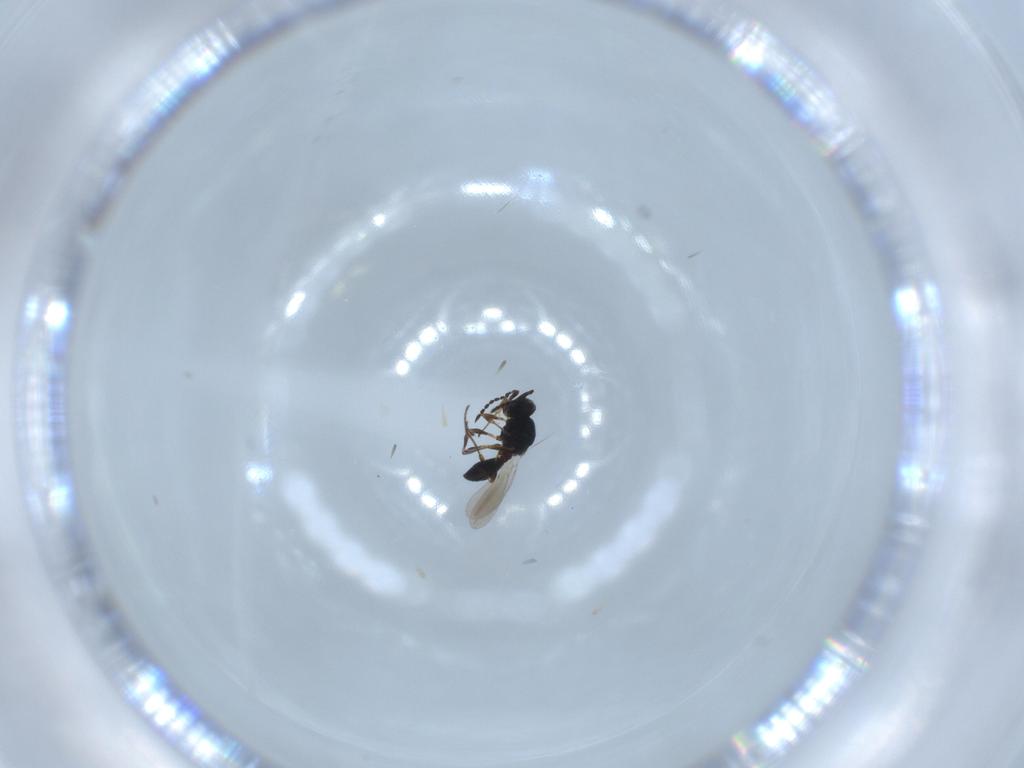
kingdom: Animalia
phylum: Arthropoda
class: Insecta
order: Hymenoptera
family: Platygastridae
